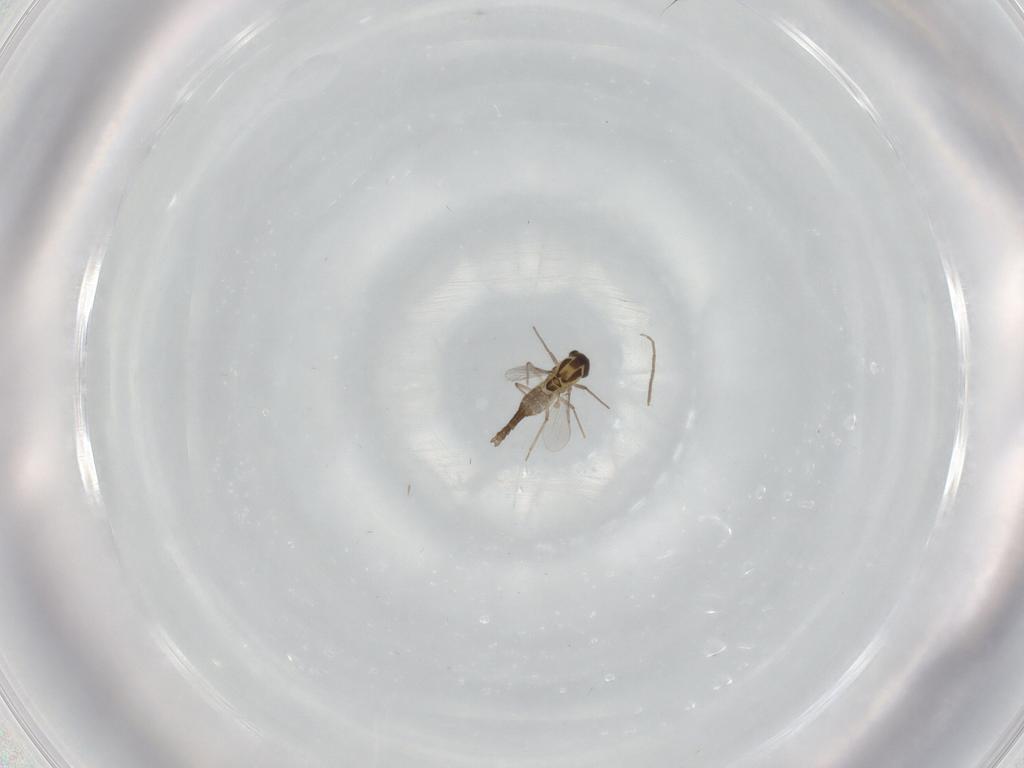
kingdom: Animalia
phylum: Arthropoda
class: Insecta
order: Diptera
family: Chironomidae
